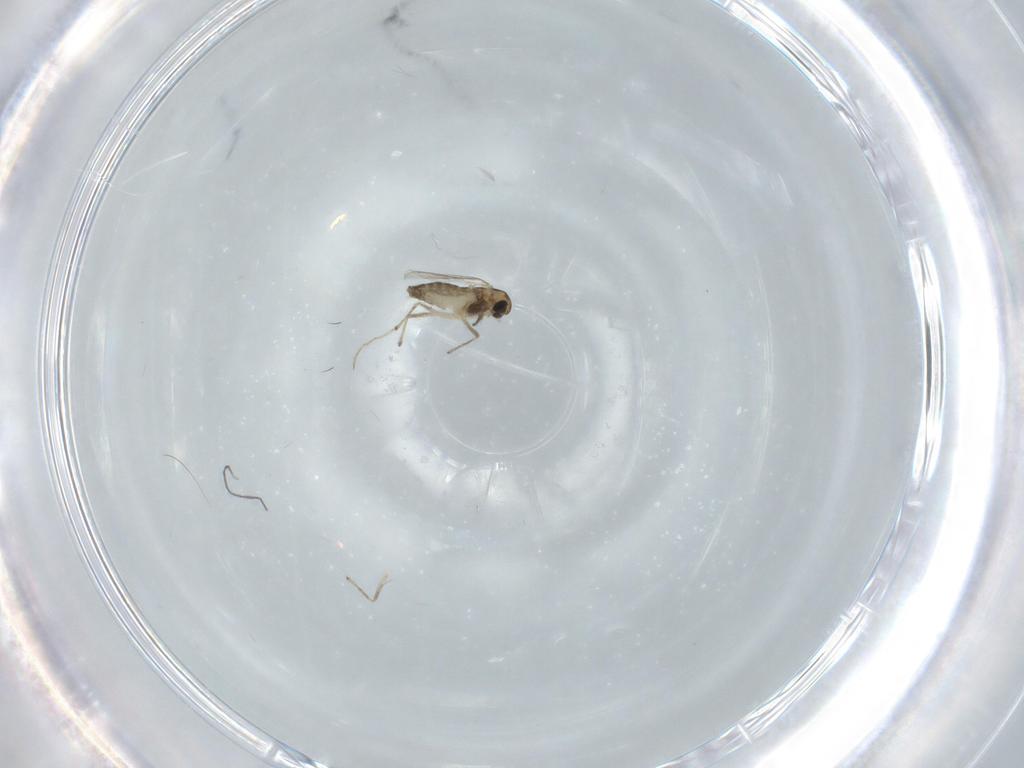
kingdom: Animalia
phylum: Arthropoda
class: Insecta
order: Diptera
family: Chironomidae
